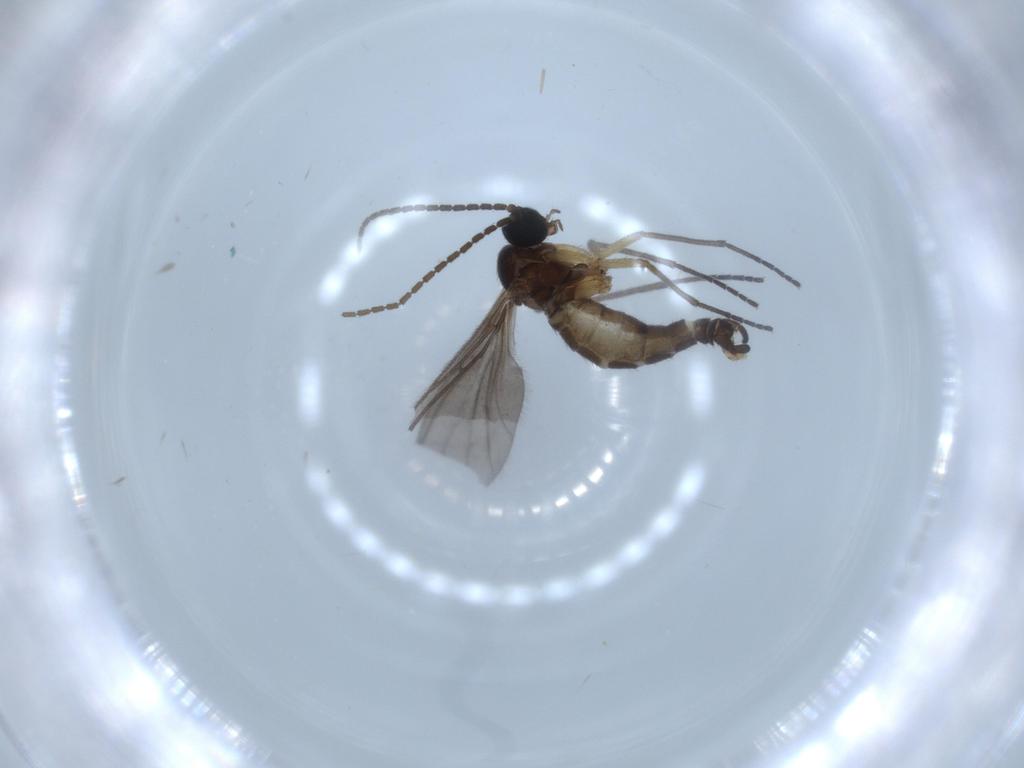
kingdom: Animalia
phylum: Arthropoda
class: Insecta
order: Diptera
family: Sciaridae
